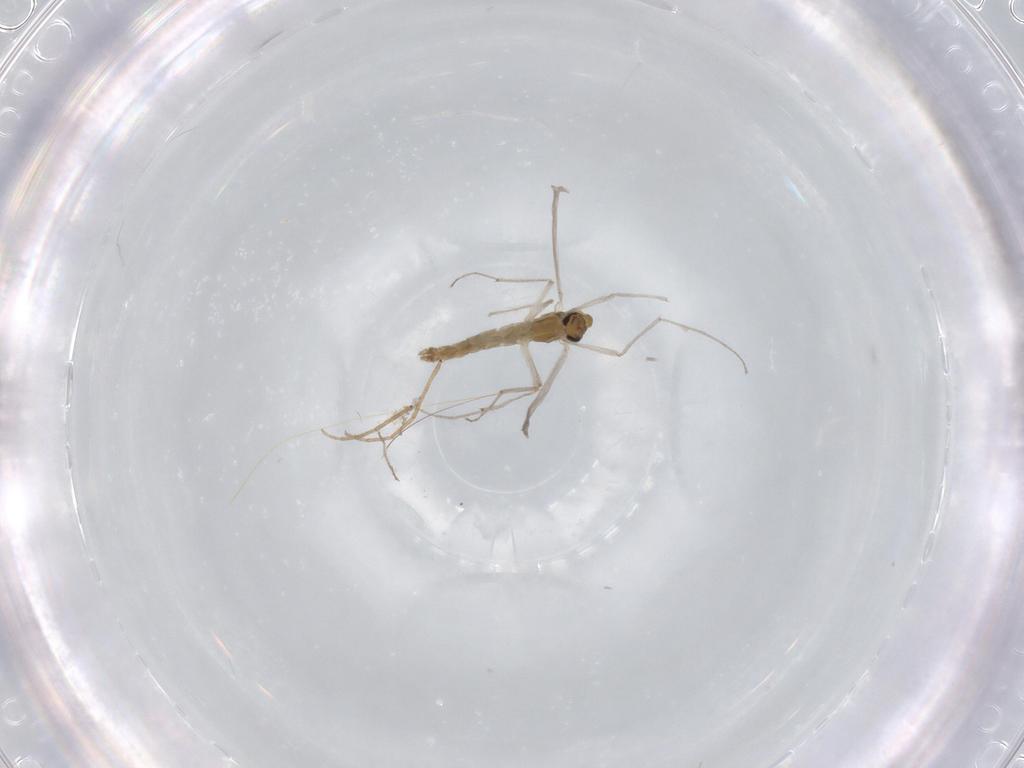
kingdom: Animalia
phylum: Arthropoda
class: Insecta
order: Diptera
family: Chironomidae
